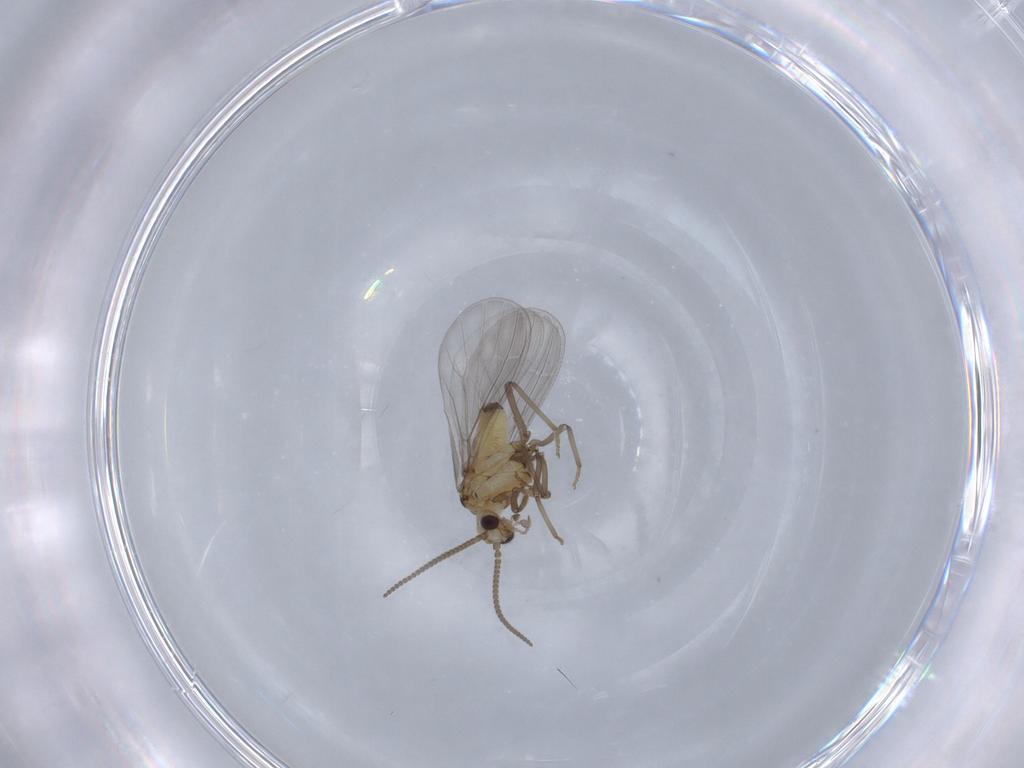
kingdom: Animalia
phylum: Arthropoda
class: Insecta
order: Neuroptera
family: Coniopterygidae
